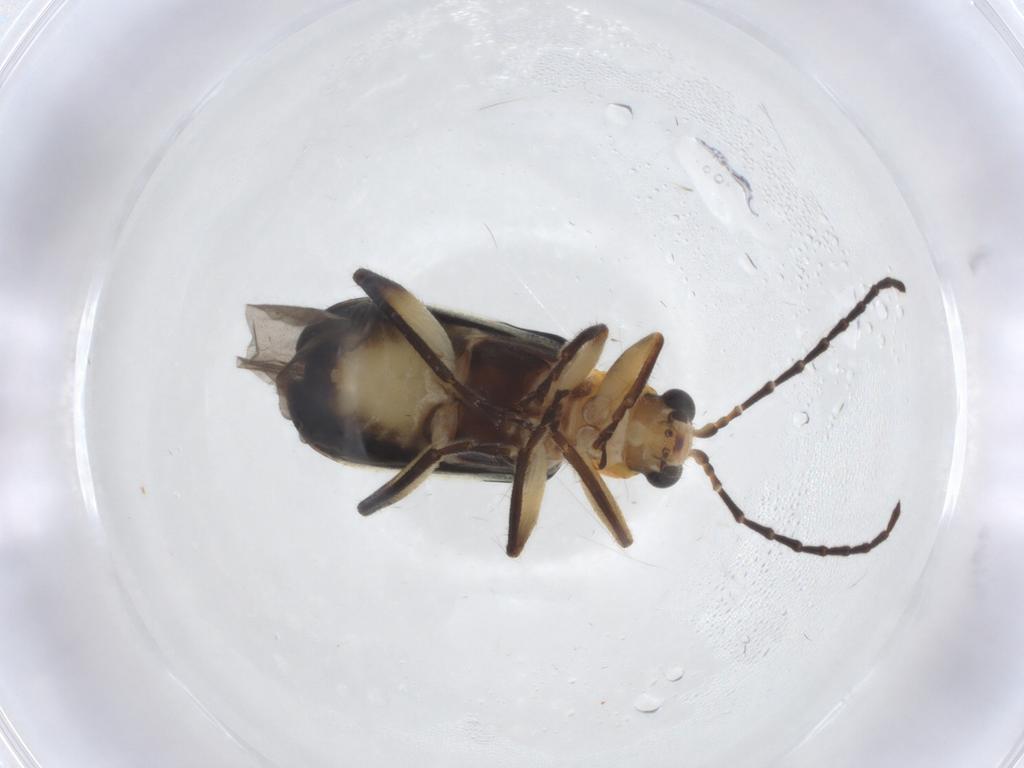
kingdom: Animalia
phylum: Arthropoda
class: Insecta
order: Coleoptera
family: Chrysomelidae
